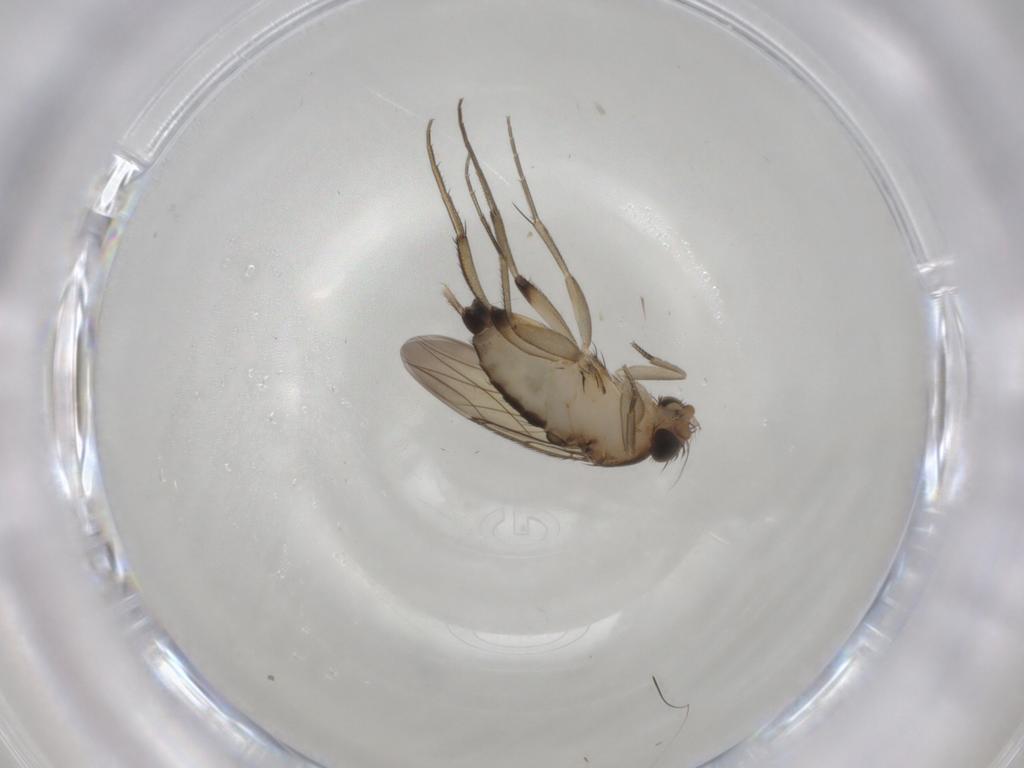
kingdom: Animalia
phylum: Arthropoda
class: Insecta
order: Diptera
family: Phoridae
